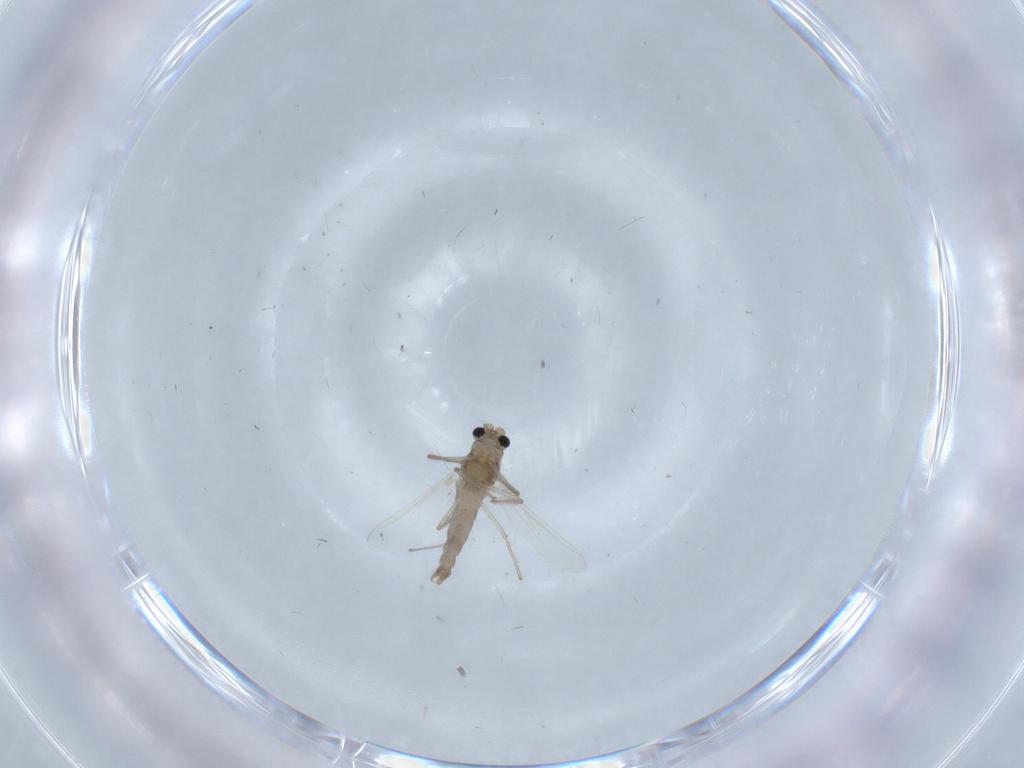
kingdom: Animalia
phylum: Arthropoda
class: Insecta
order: Diptera
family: Chironomidae
